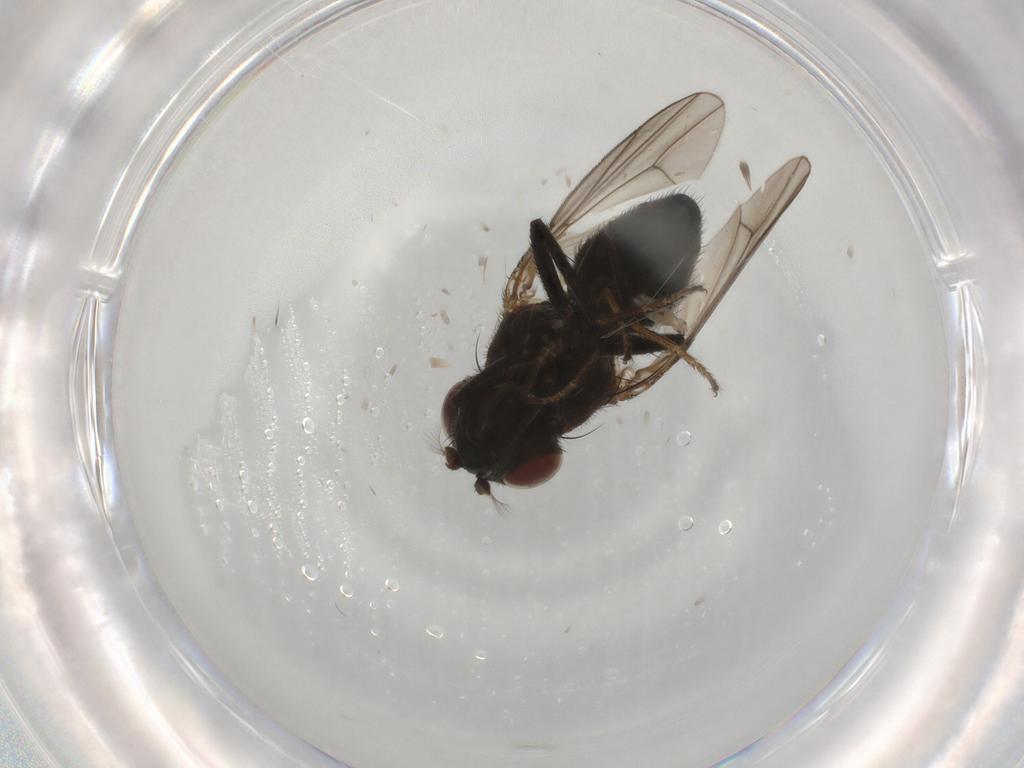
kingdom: Animalia
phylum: Arthropoda
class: Insecta
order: Diptera
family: Ephydridae
